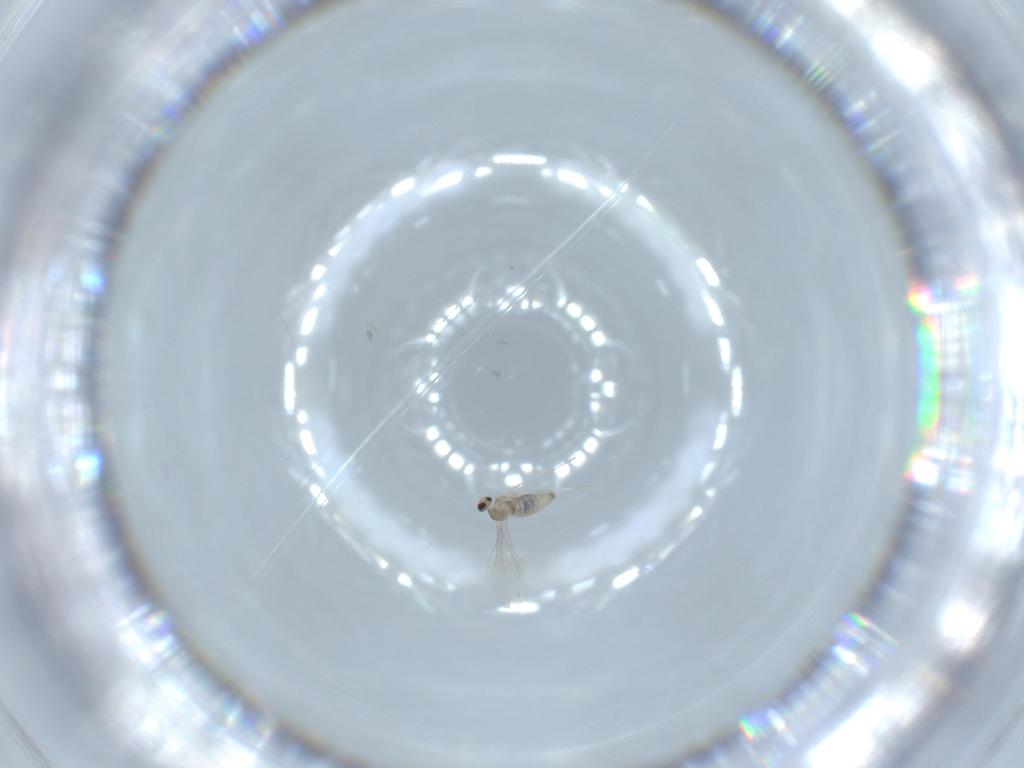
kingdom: Animalia
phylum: Arthropoda
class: Insecta
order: Diptera
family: Cecidomyiidae
